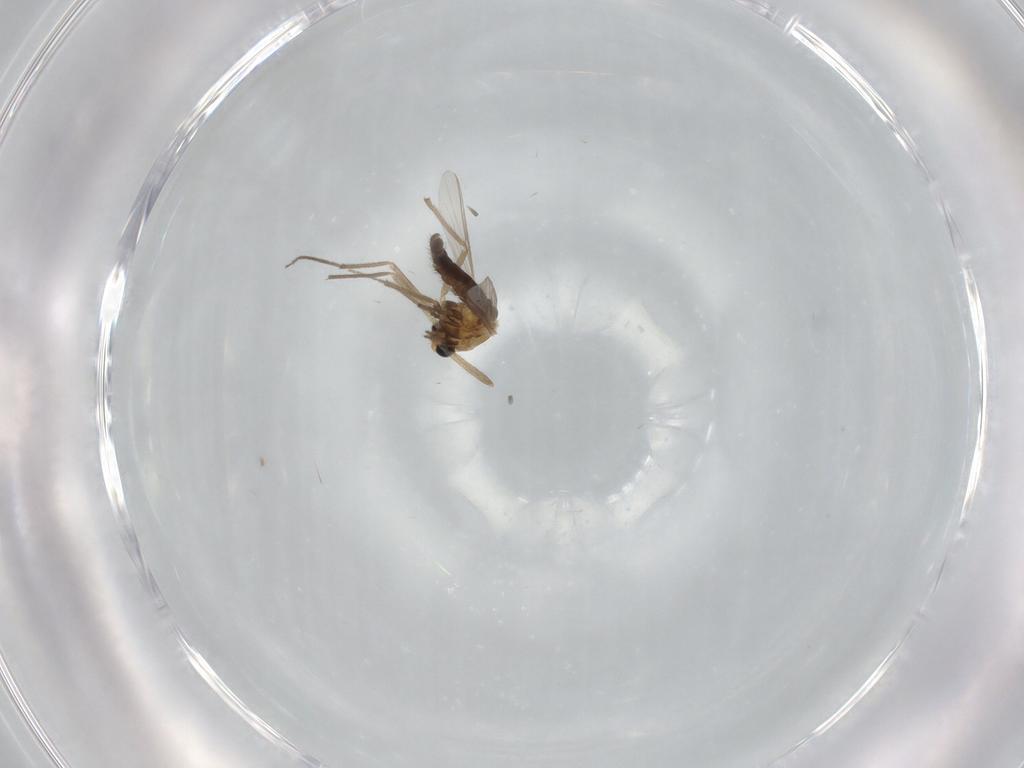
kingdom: Animalia
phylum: Arthropoda
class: Insecta
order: Diptera
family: Chironomidae
